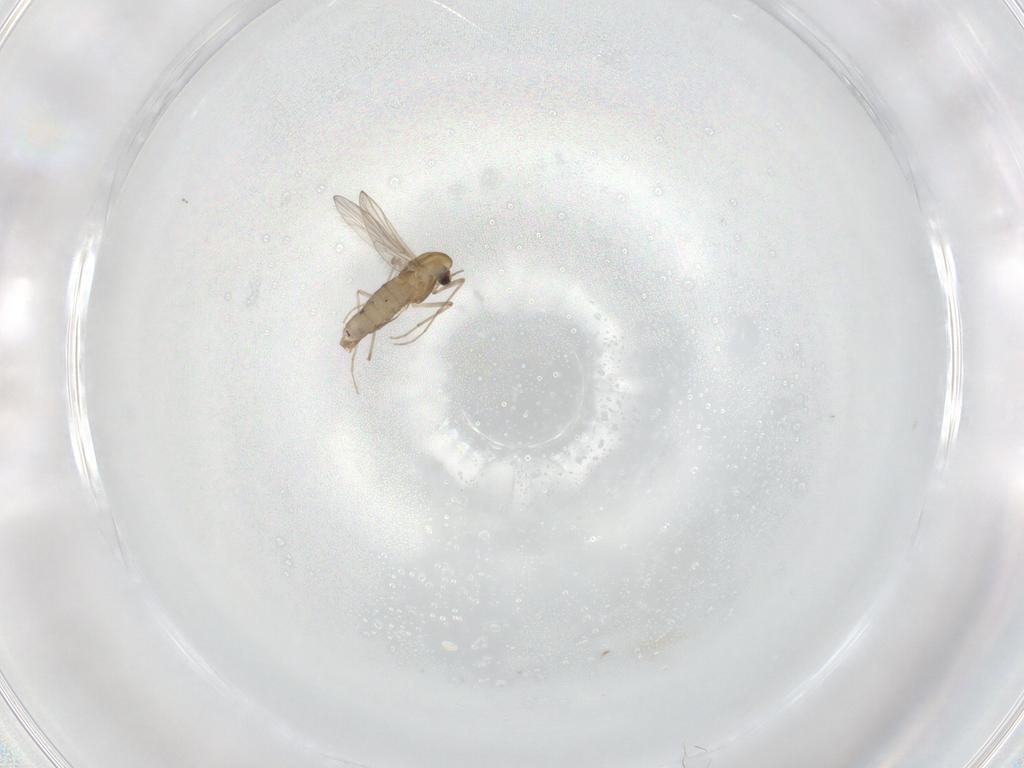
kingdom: Animalia
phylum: Arthropoda
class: Insecta
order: Diptera
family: Chironomidae
